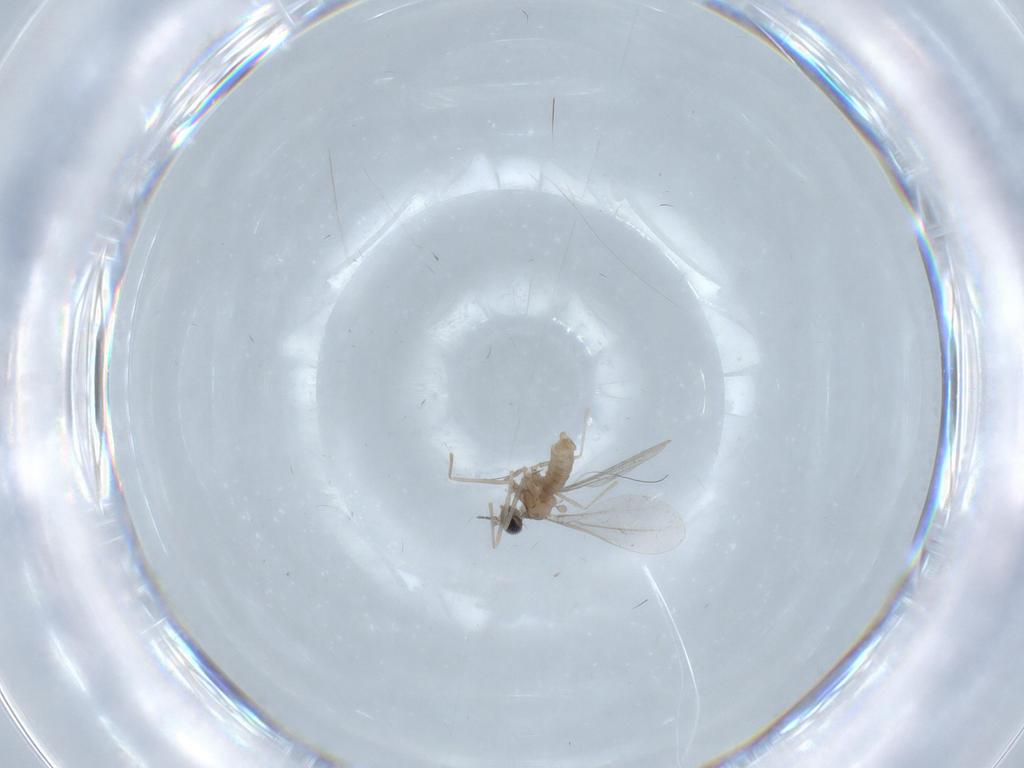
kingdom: Animalia
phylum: Arthropoda
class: Insecta
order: Diptera
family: Cecidomyiidae
